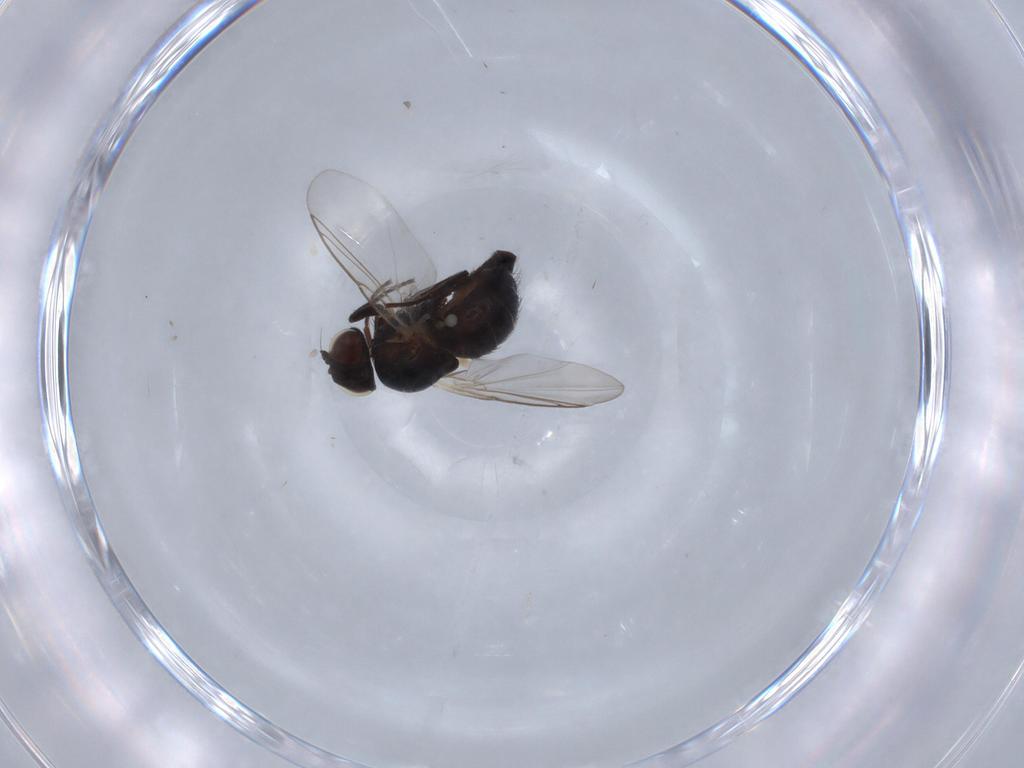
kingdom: Animalia
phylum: Arthropoda
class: Insecta
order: Diptera
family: Agromyzidae
